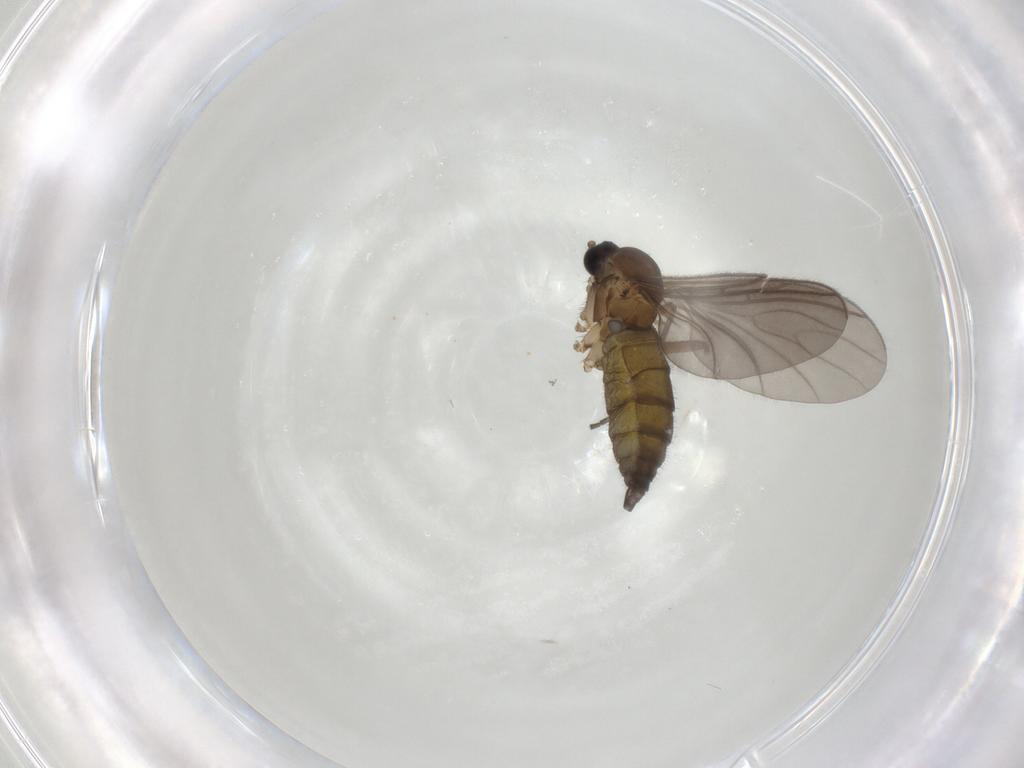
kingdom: Animalia
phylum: Arthropoda
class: Insecta
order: Diptera
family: Sciaridae
